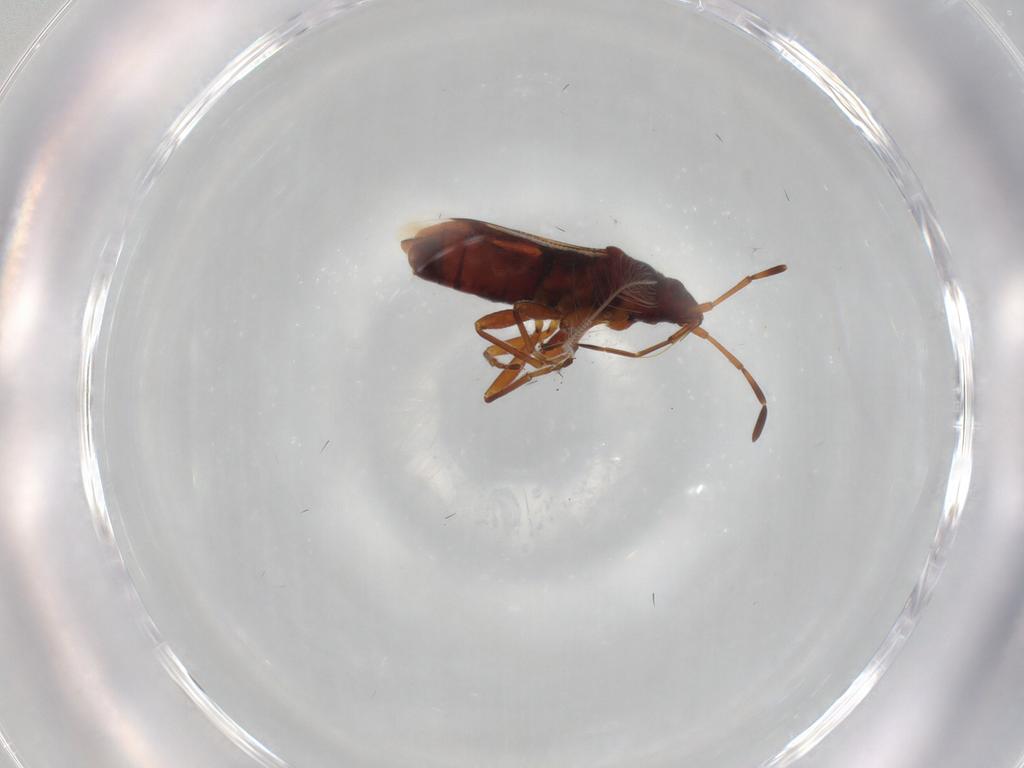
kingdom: Animalia
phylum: Arthropoda
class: Insecta
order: Hemiptera
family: Rhyparochromidae
